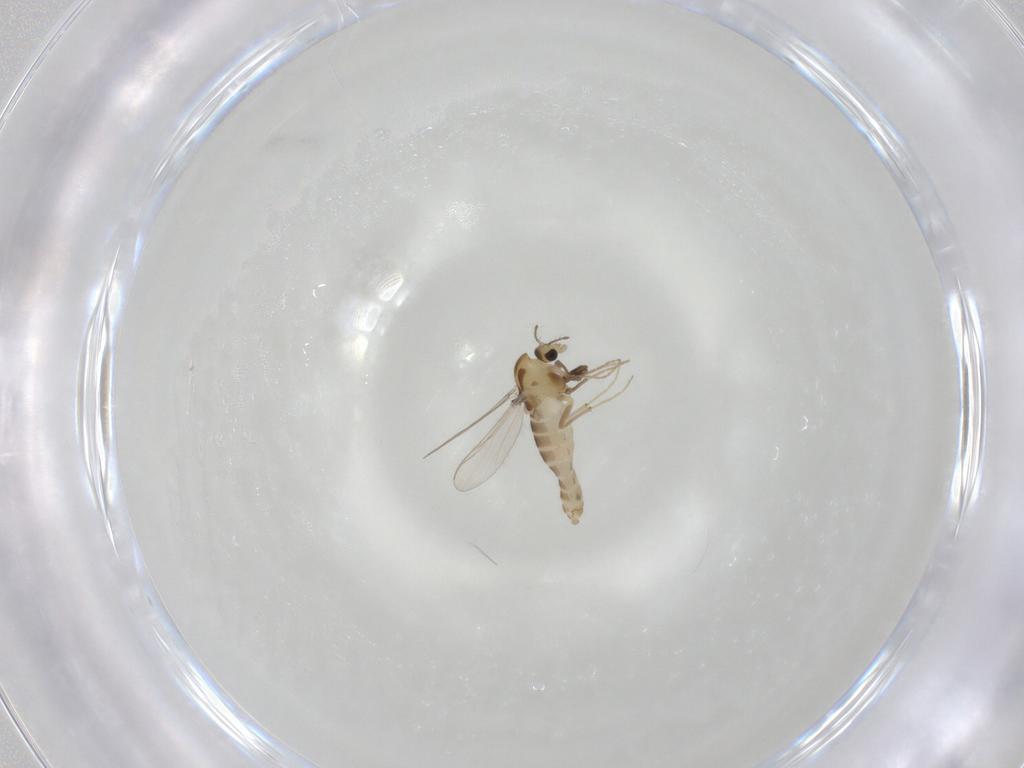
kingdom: Animalia
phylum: Arthropoda
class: Insecta
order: Diptera
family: Chironomidae
